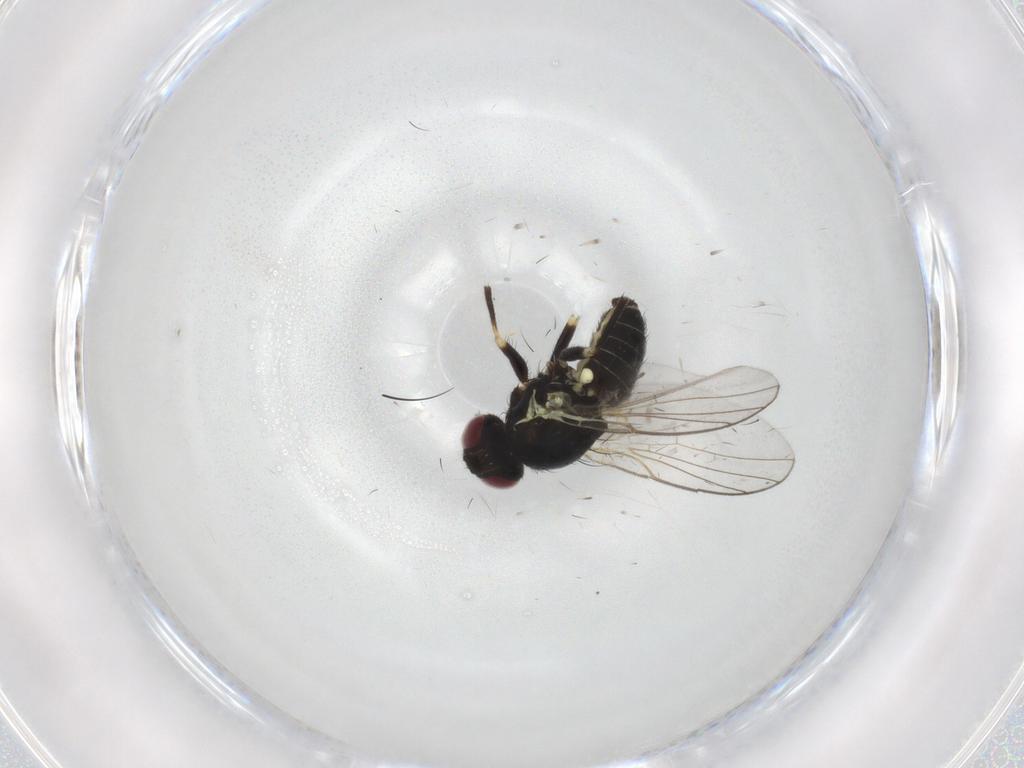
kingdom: Animalia
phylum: Arthropoda
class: Insecta
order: Diptera
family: Agromyzidae
